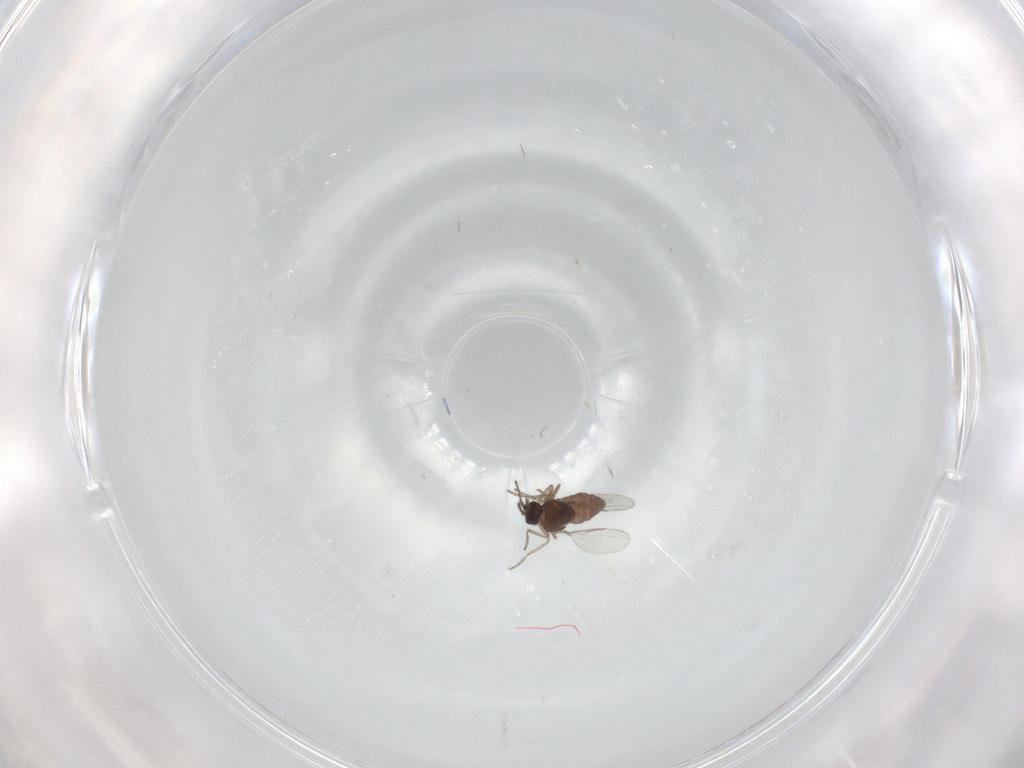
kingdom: Animalia
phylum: Arthropoda
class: Insecta
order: Diptera
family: Ceratopogonidae
